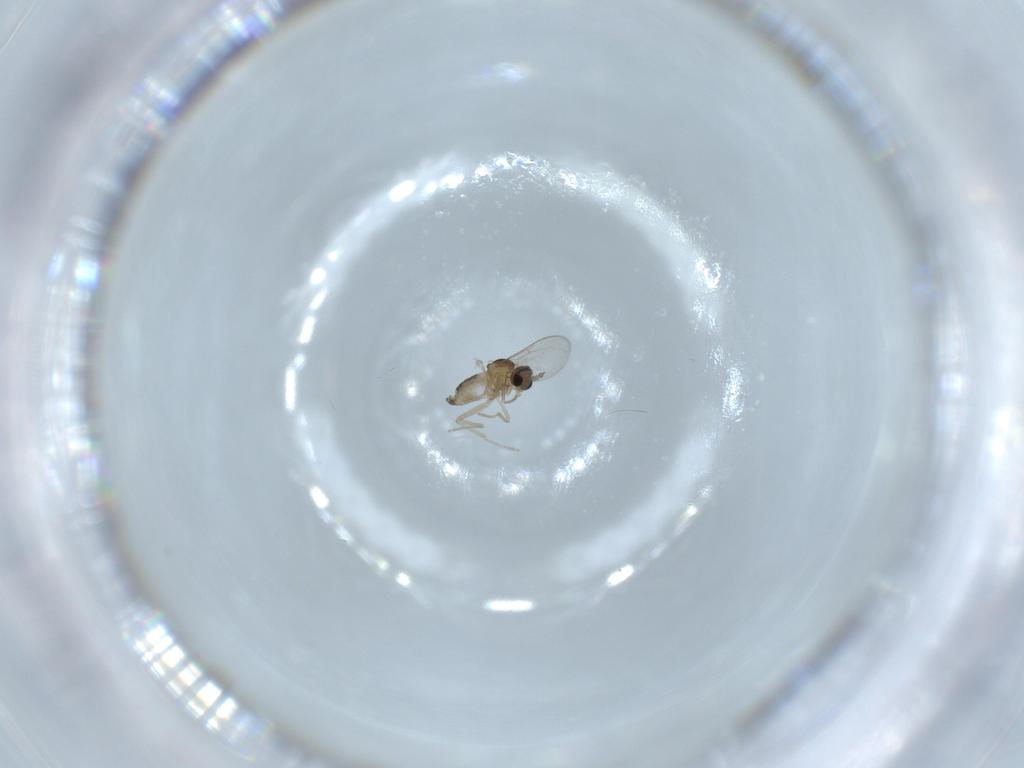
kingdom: Animalia
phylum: Arthropoda
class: Insecta
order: Diptera
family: Cecidomyiidae
